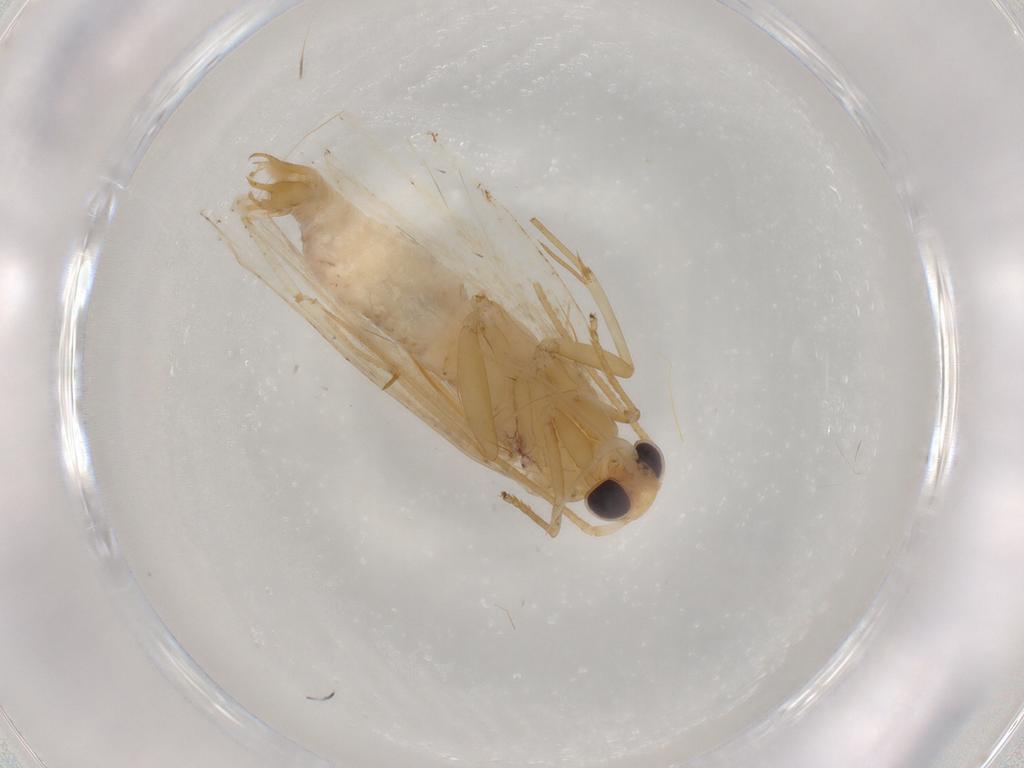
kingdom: Animalia
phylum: Arthropoda
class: Insecta
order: Lepidoptera
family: Depressariidae
